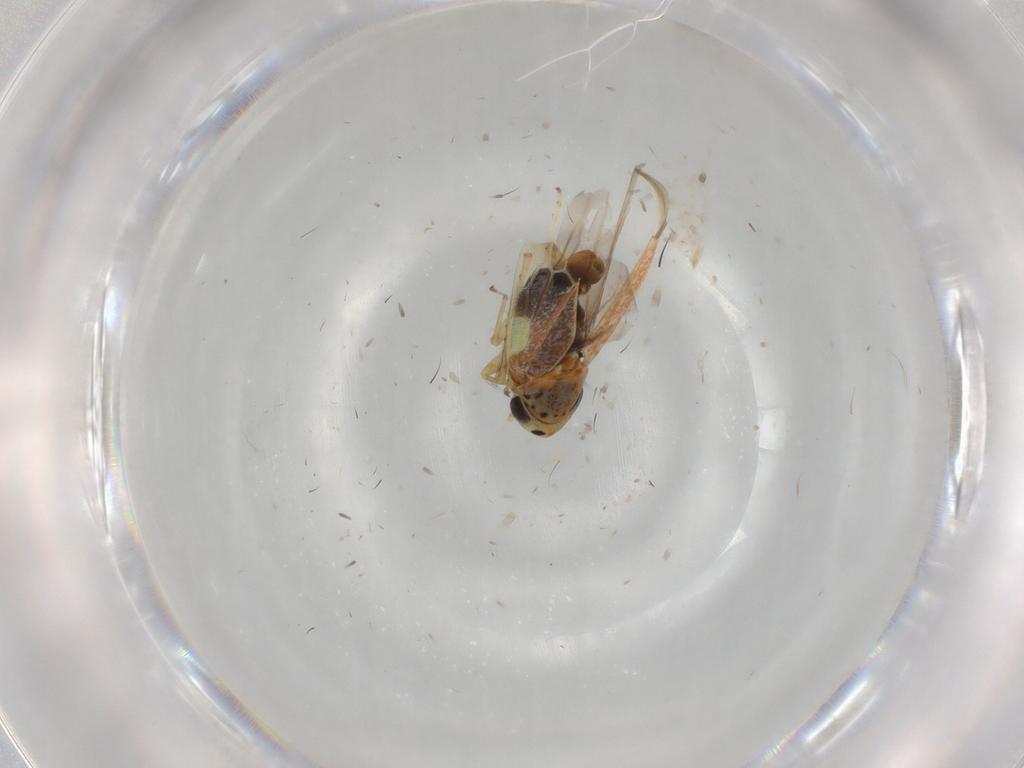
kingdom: Animalia
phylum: Arthropoda
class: Insecta
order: Hemiptera
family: Cicadellidae
